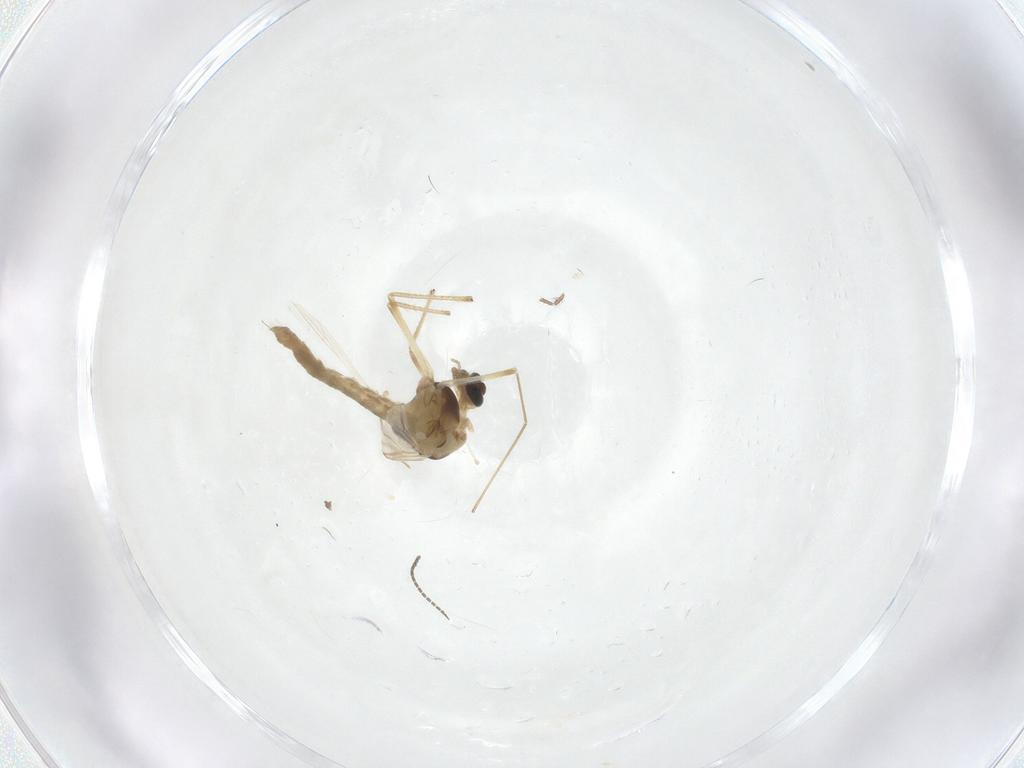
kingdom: Animalia
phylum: Arthropoda
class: Insecta
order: Diptera
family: Chironomidae
